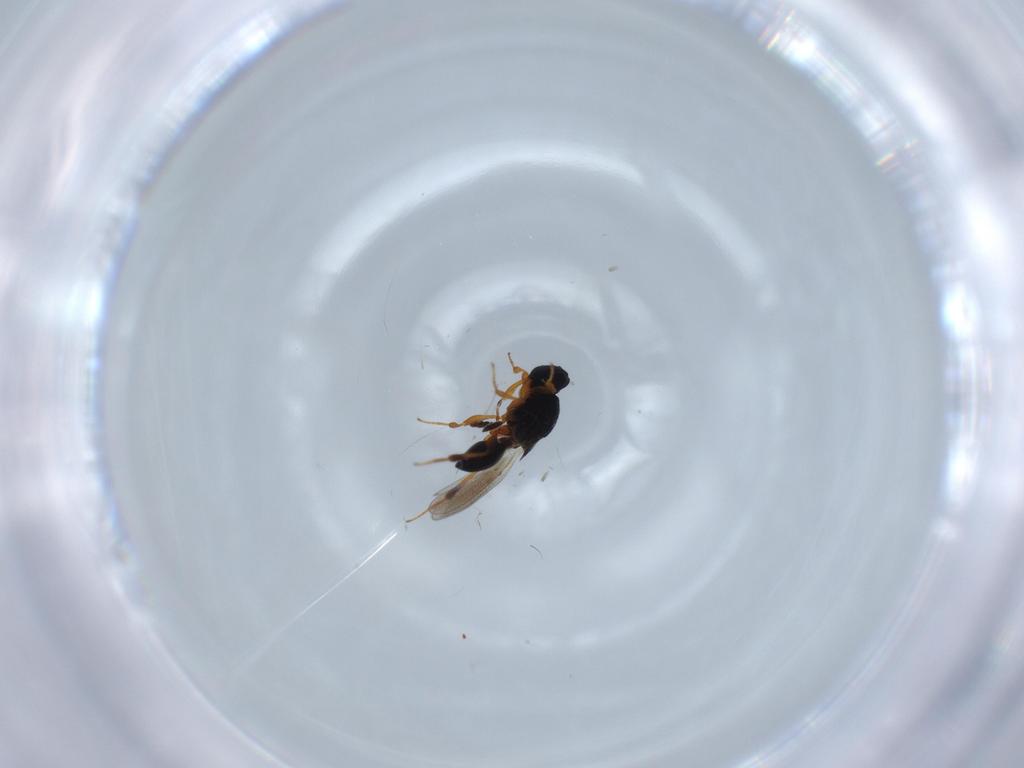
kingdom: Animalia
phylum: Arthropoda
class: Insecta
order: Hymenoptera
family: Platygastridae
